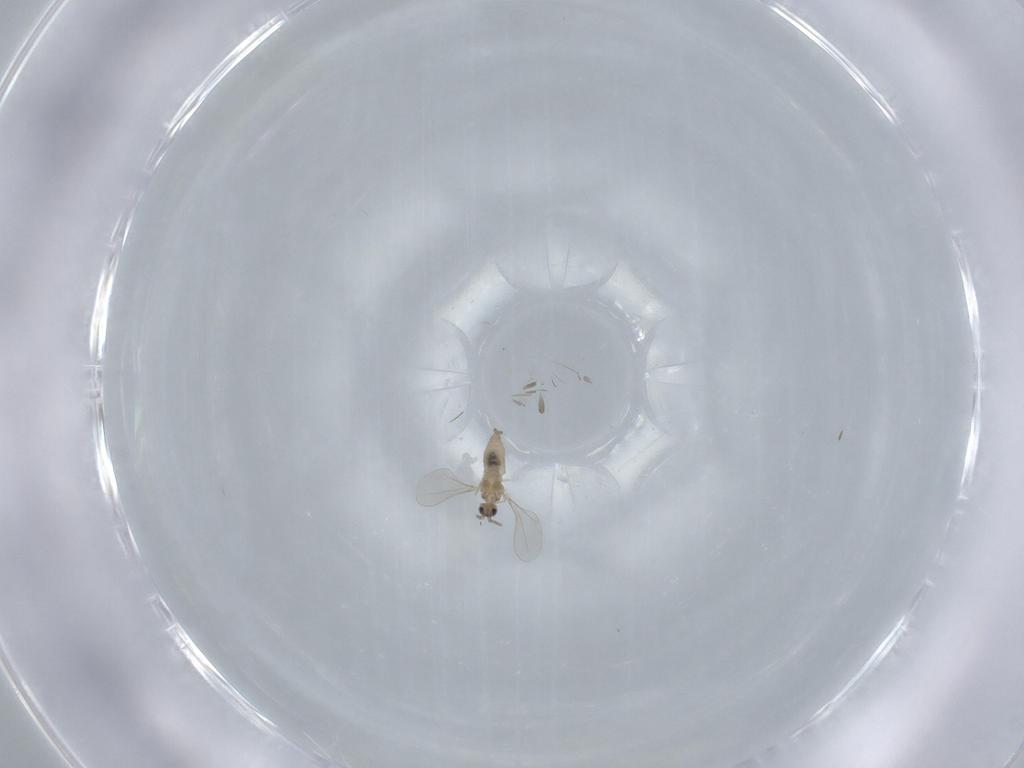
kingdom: Animalia
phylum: Arthropoda
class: Insecta
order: Diptera
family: Cecidomyiidae
